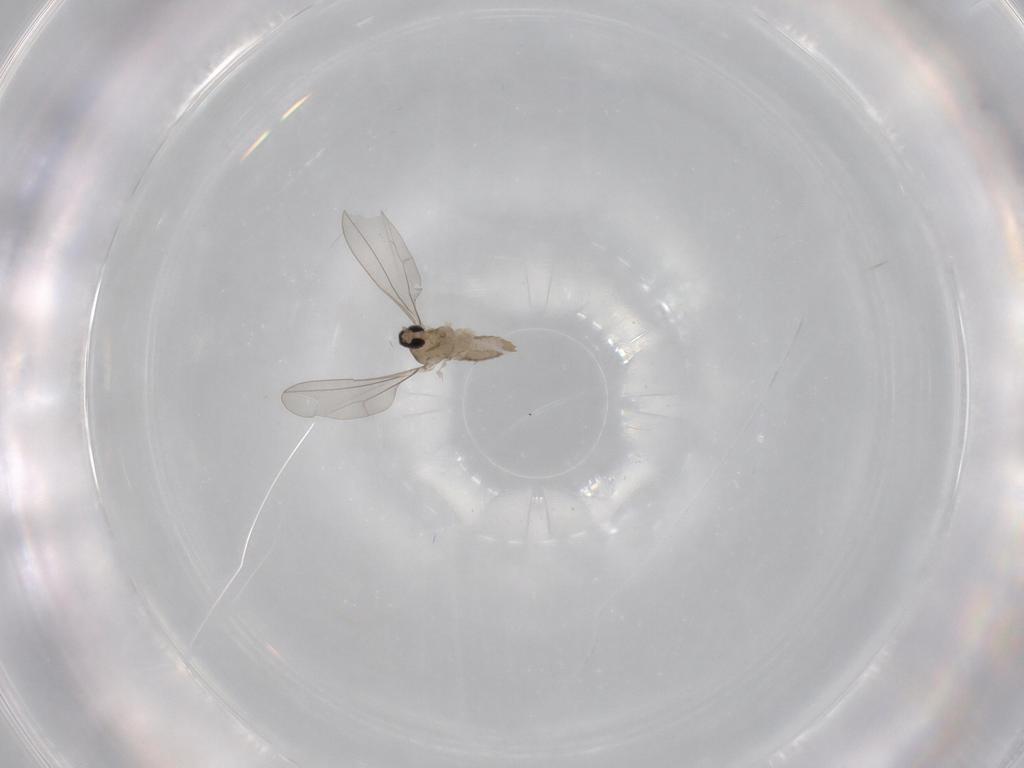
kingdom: Animalia
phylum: Arthropoda
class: Insecta
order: Diptera
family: Cecidomyiidae
